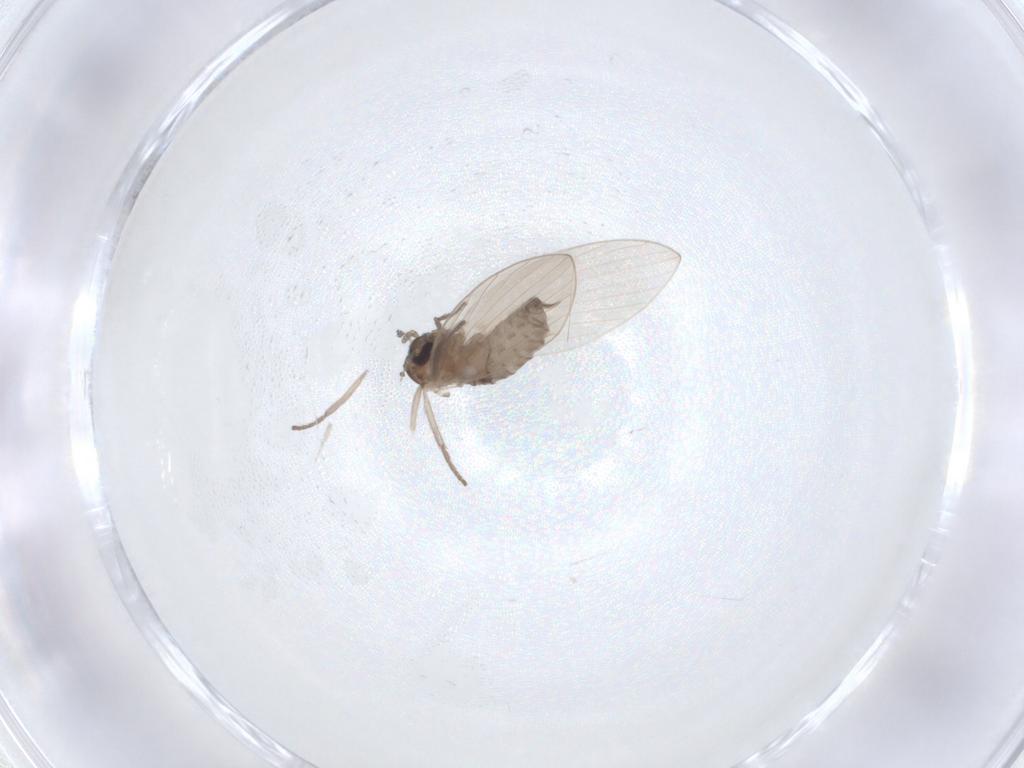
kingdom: Animalia
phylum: Arthropoda
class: Insecta
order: Diptera
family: Psychodidae
